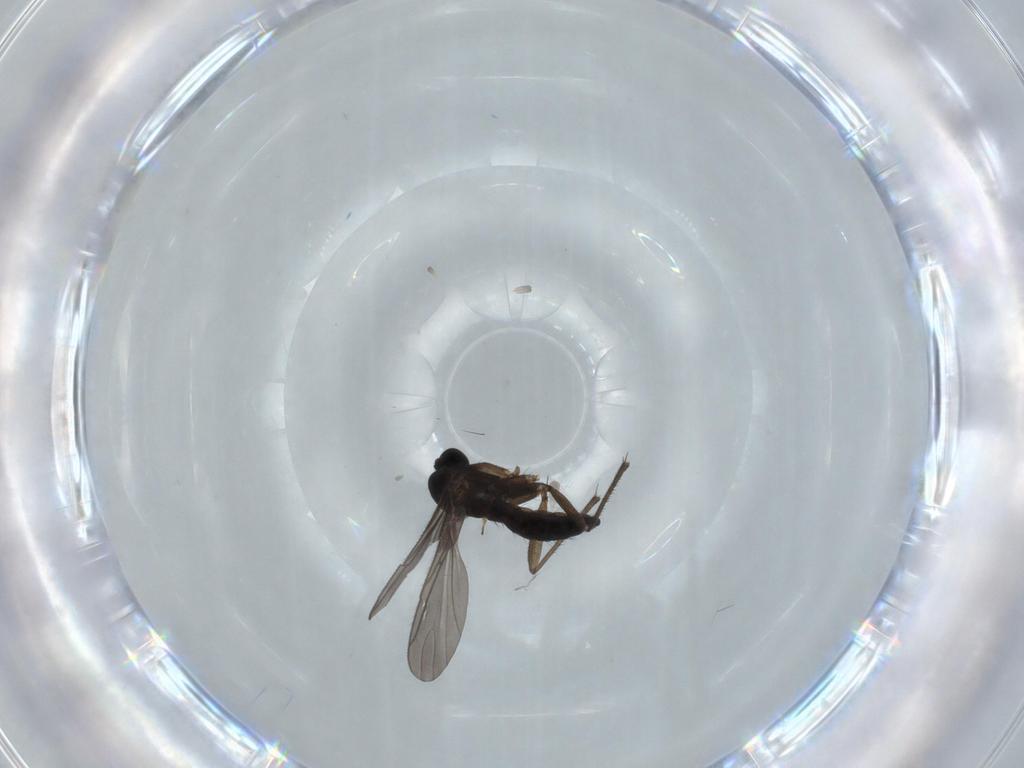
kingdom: Animalia
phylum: Arthropoda
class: Insecta
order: Diptera
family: Sciaridae
